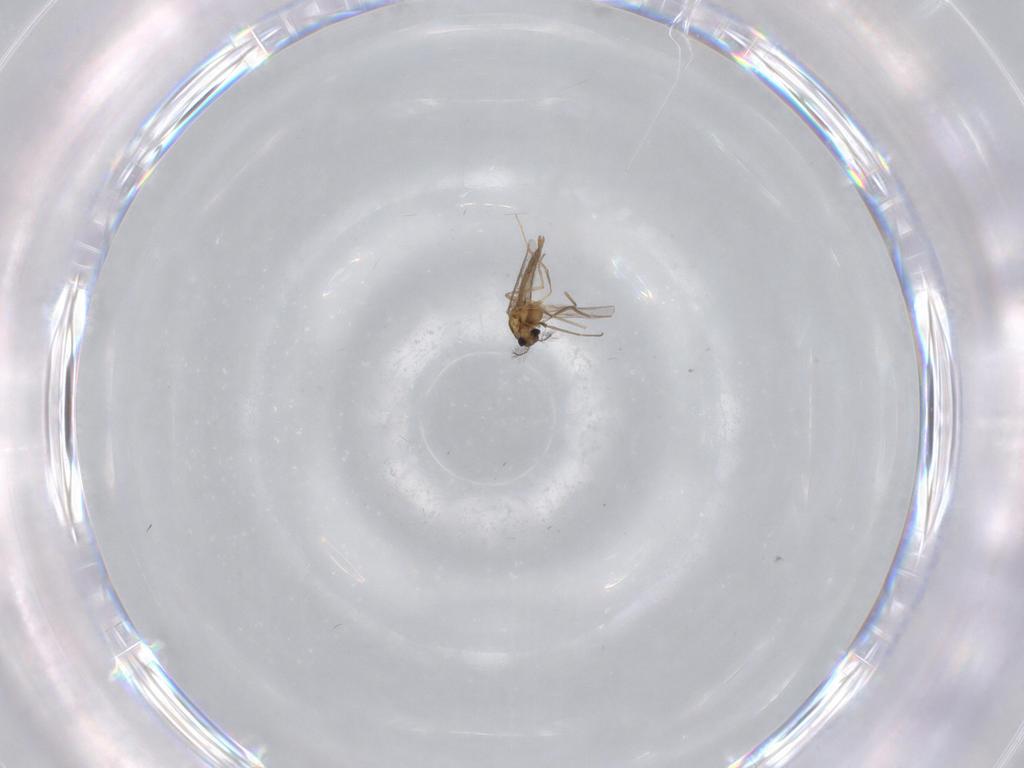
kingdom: Animalia
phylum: Arthropoda
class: Insecta
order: Diptera
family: Chironomidae
